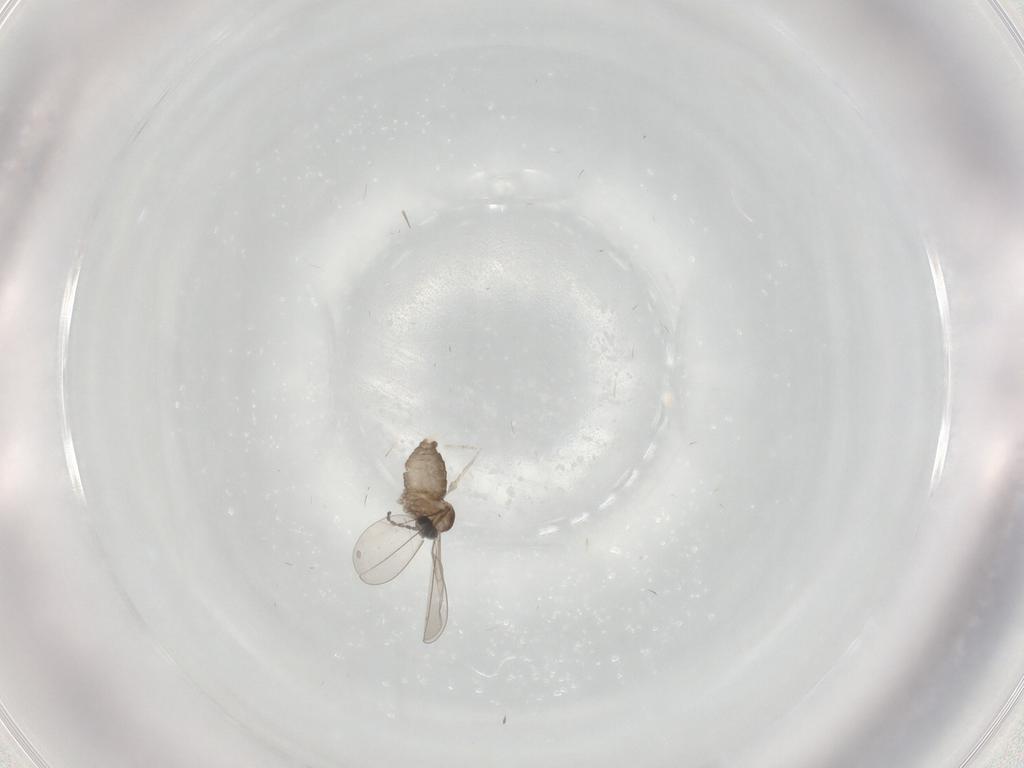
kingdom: Animalia
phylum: Arthropoda
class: Insecta
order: Diptera
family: Cecidomyiidae
